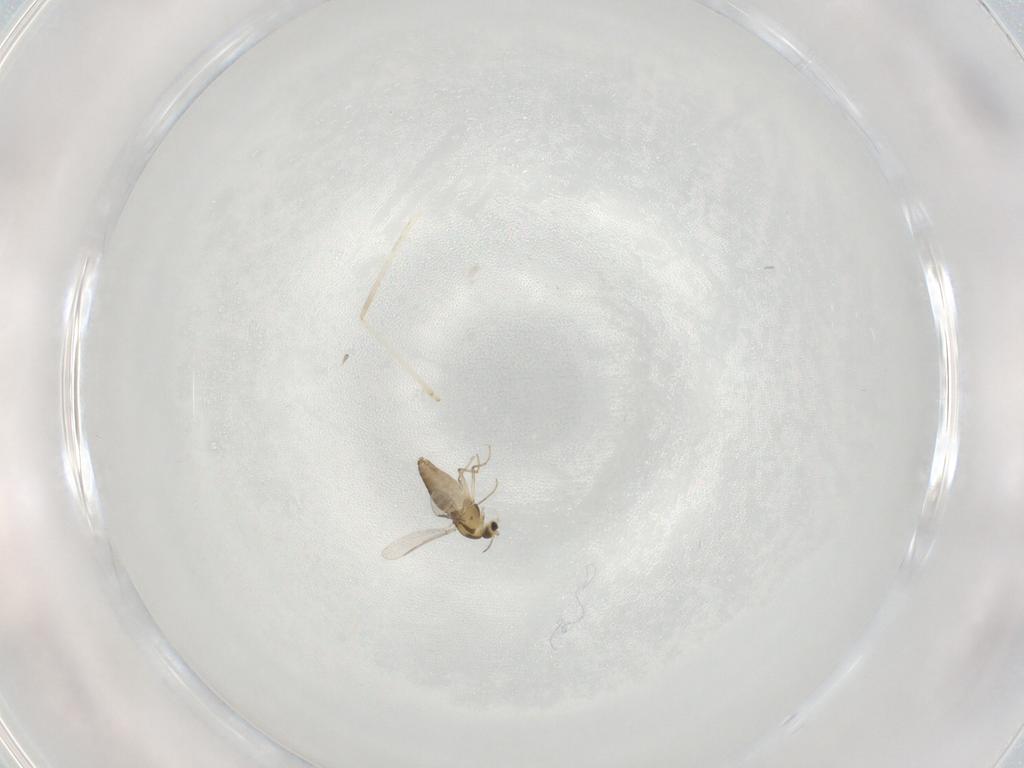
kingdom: Animalia
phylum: Arthropoda
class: Insecta
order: Diptera
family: Chironomidae
